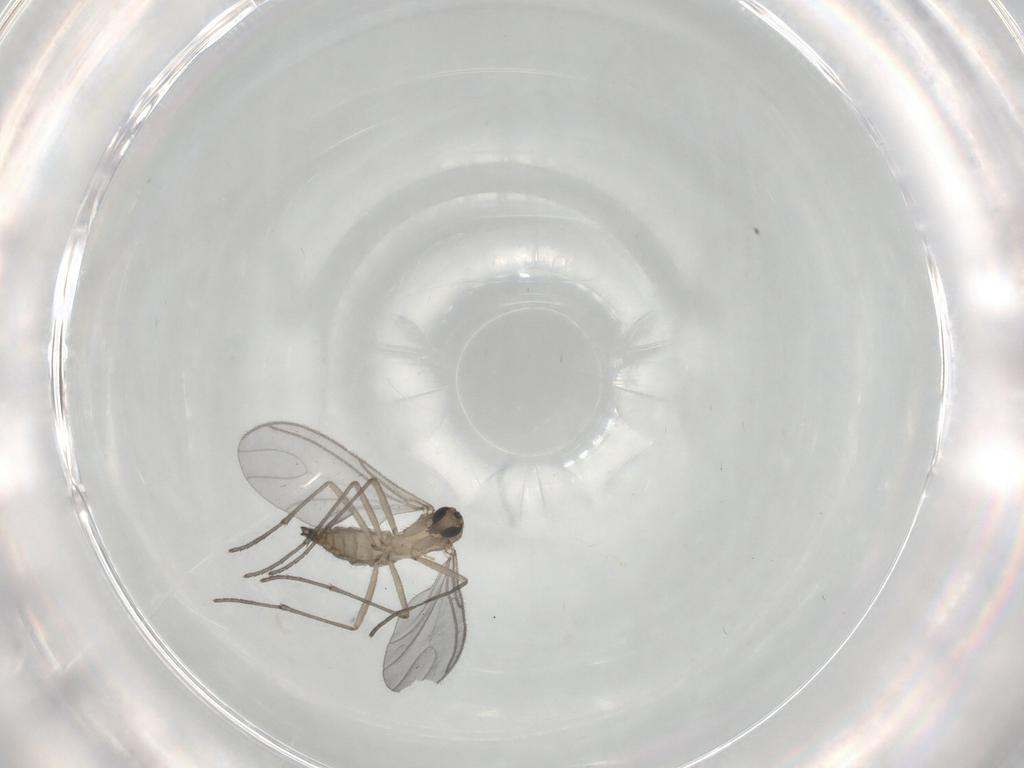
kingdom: Animalia
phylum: Arthropoda
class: Insecta
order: Diptera
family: Sciaridae
